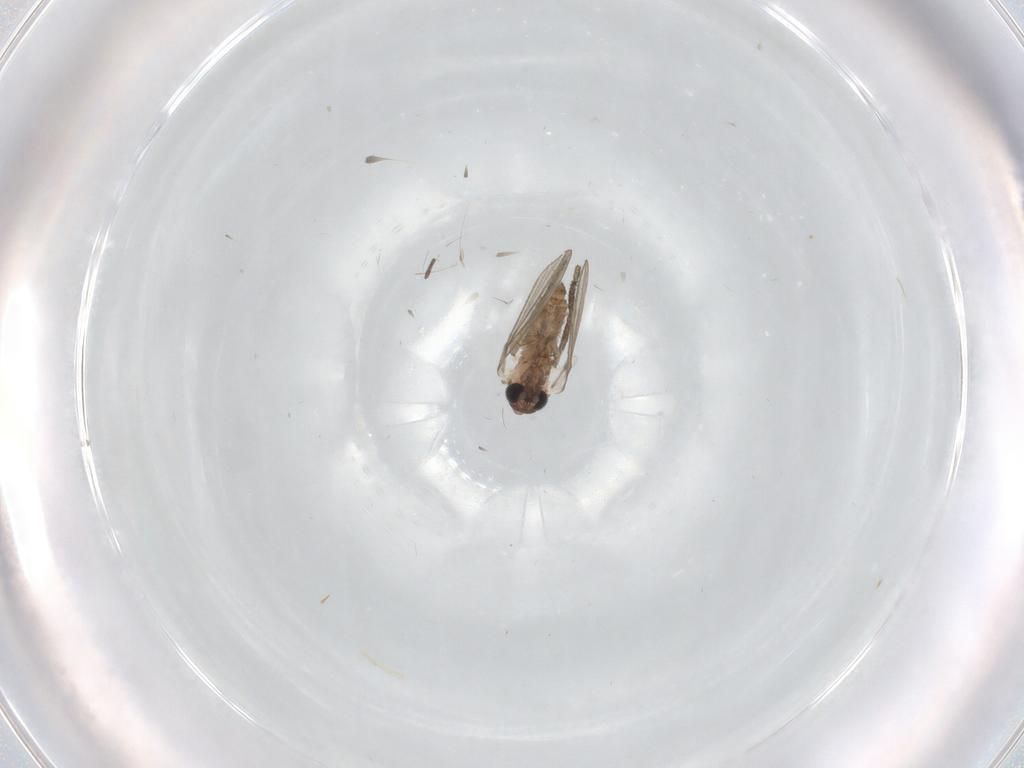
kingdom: Animalia
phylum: Arthropoda
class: Insecta
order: Diptera
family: Psychodidae
